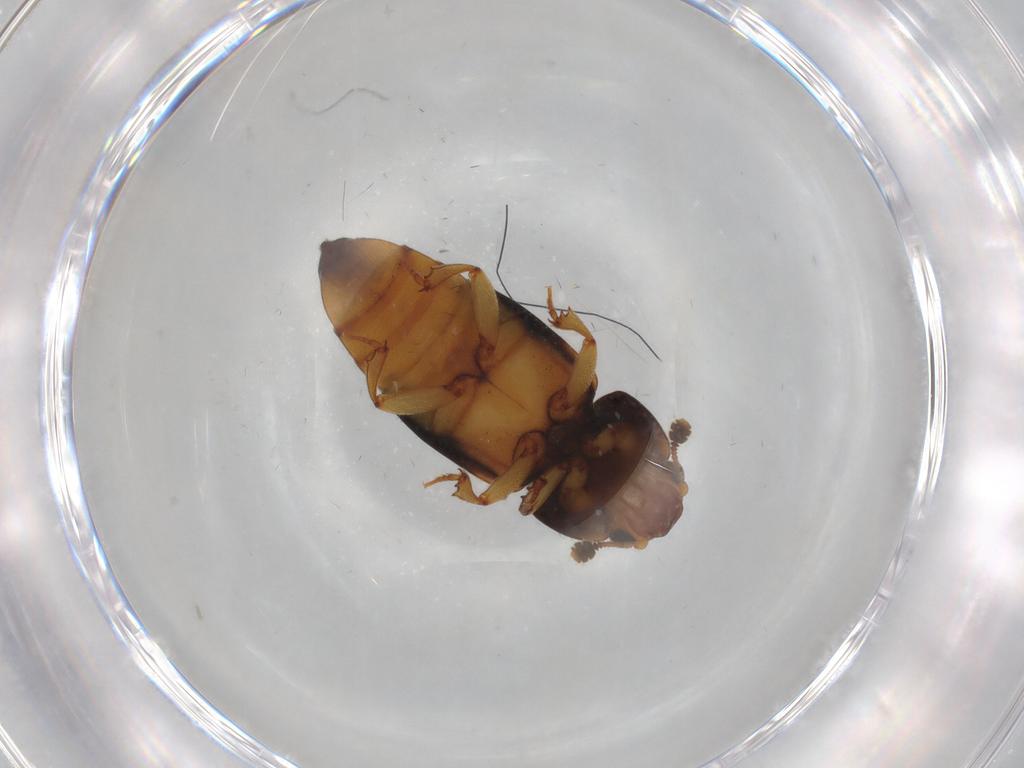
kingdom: Animalia
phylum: Arthropoda
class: Insecta
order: Coleoptera
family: Nitidulidae
